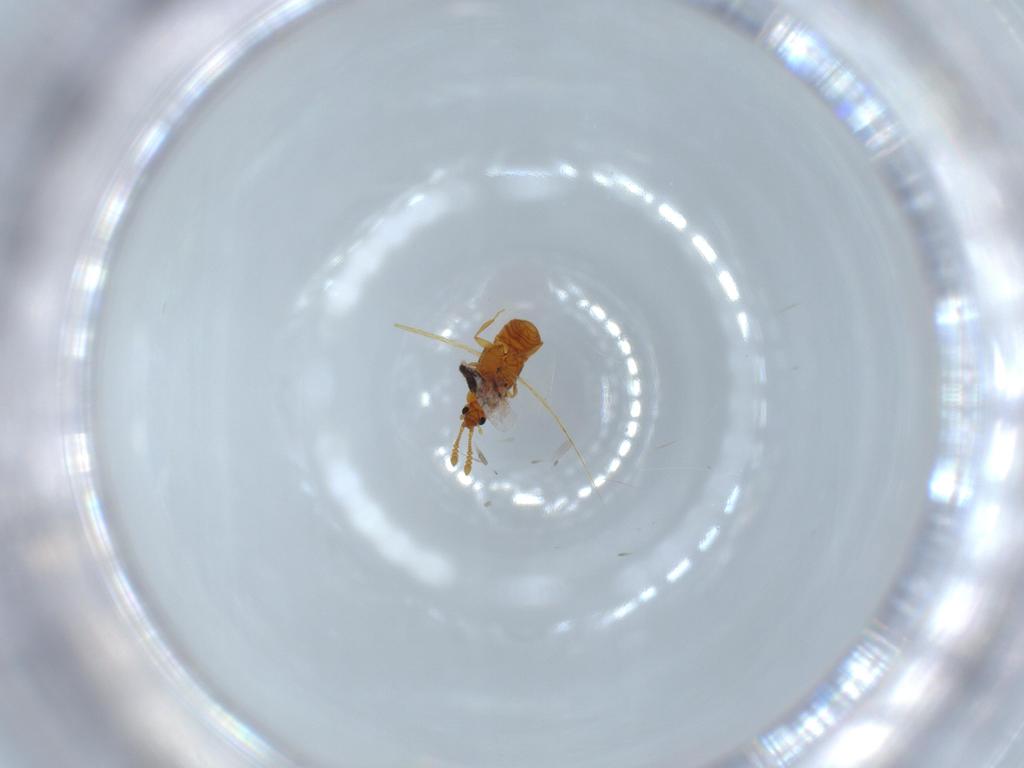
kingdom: Animalia
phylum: Arthropoda
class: Insecta
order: Coleoptera
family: Staphylinidae
